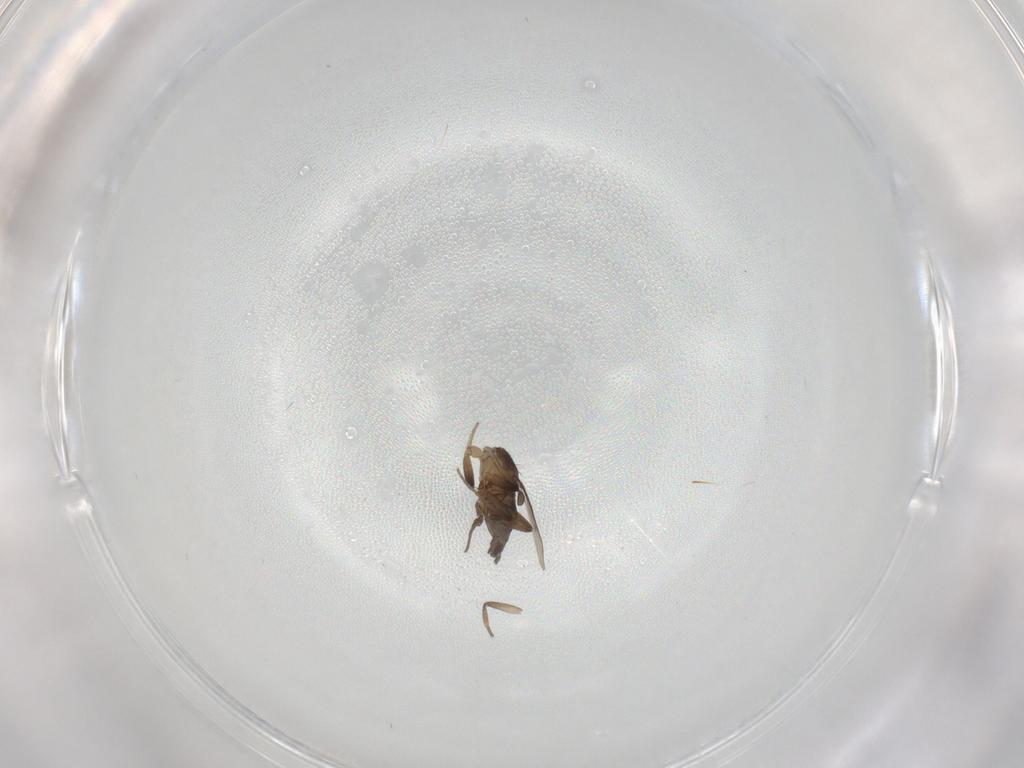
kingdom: Animalia
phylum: Arthropoda
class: Insecta
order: Diptera
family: Phoridae
